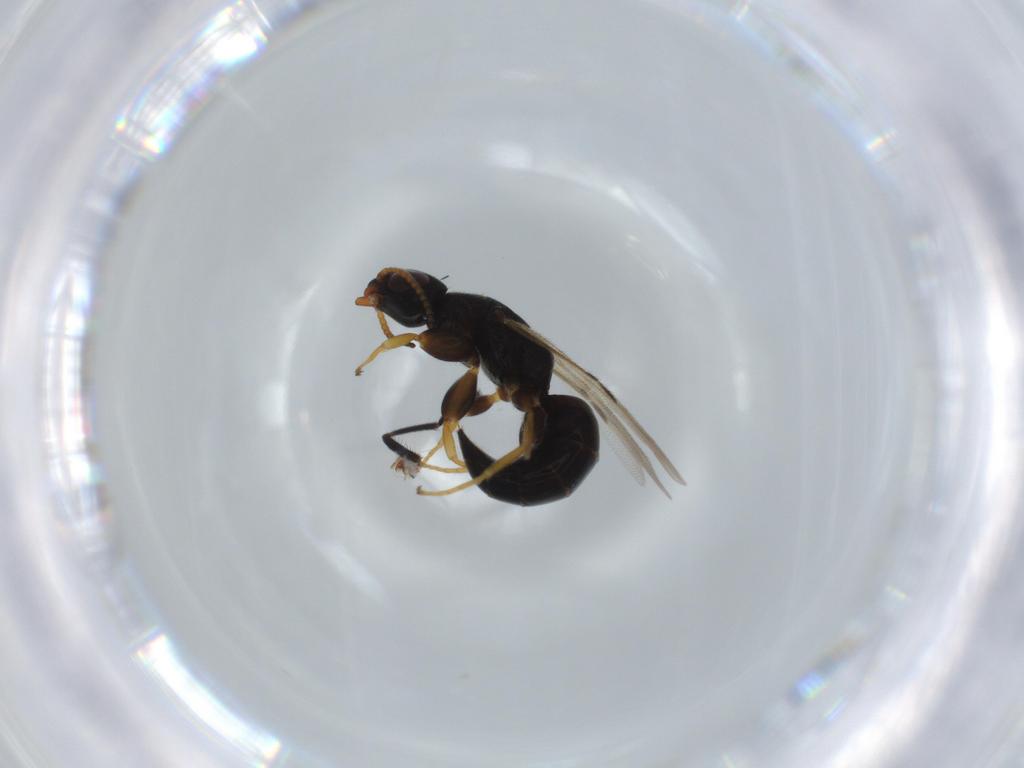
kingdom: Animalia
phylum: Arthropoda
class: Insecta
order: Hymenoptera
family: Bethylidae
